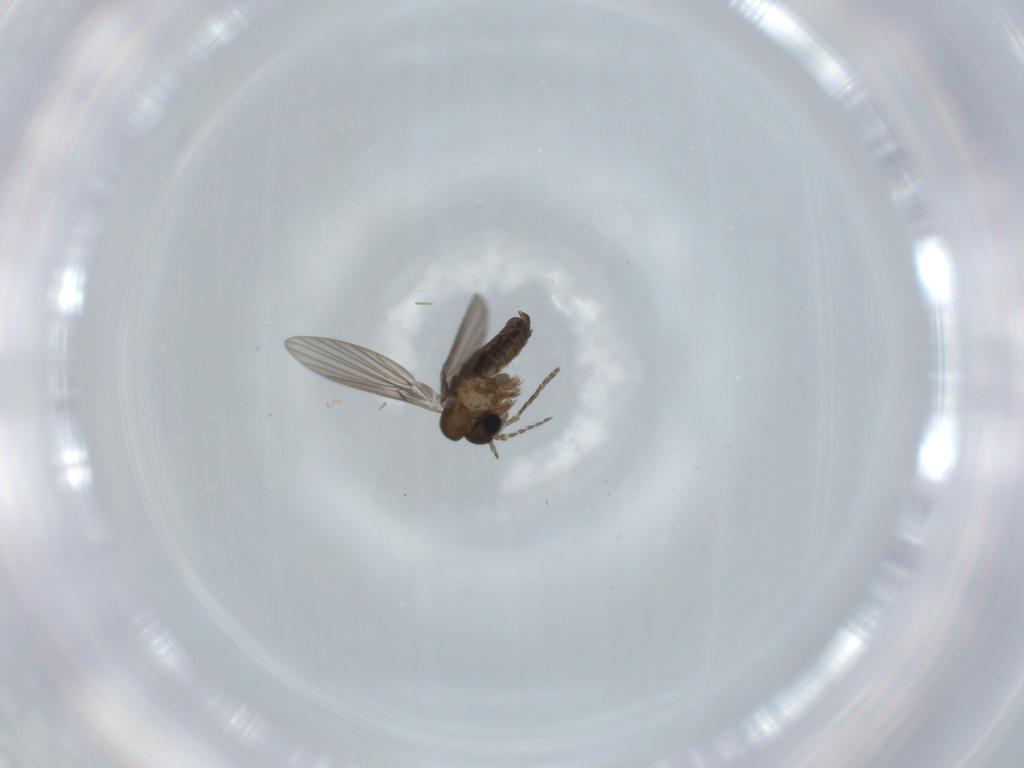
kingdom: Animalia
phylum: Arthropoda
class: Insecta
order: Diptera
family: Psychodidae
